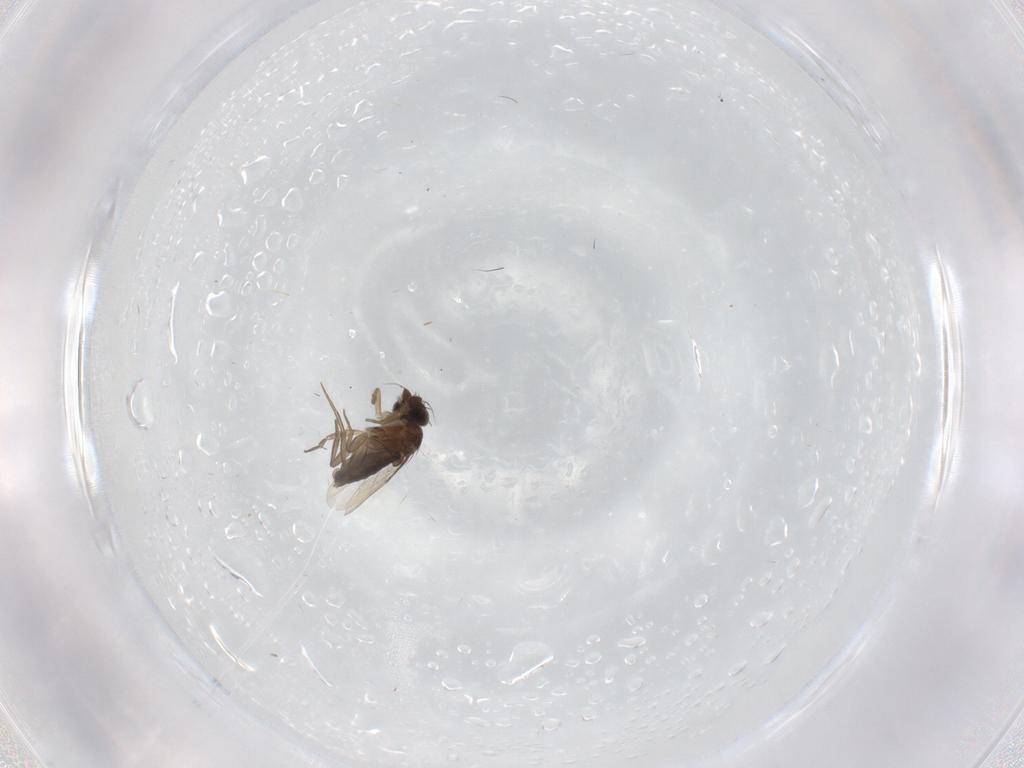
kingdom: Animalia
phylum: Arthropoda
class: Insecta
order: Diptera
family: Phoridae
